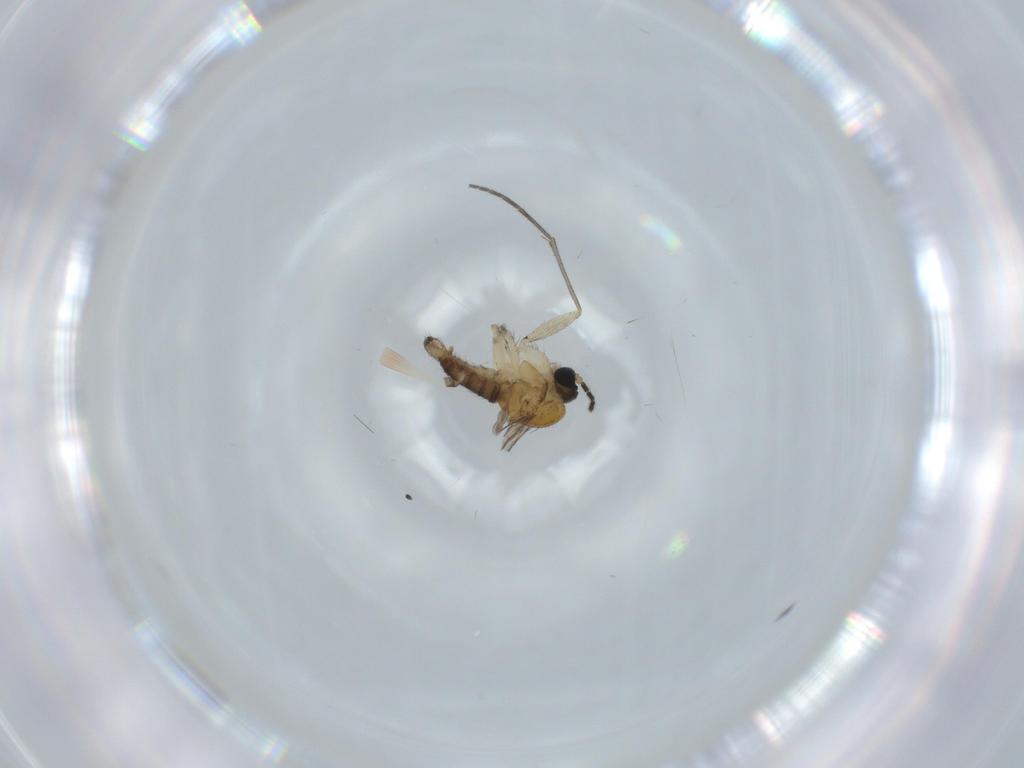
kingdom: Animalia
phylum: Arthropoda
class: Insecta
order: Diptera
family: Sciaridae
